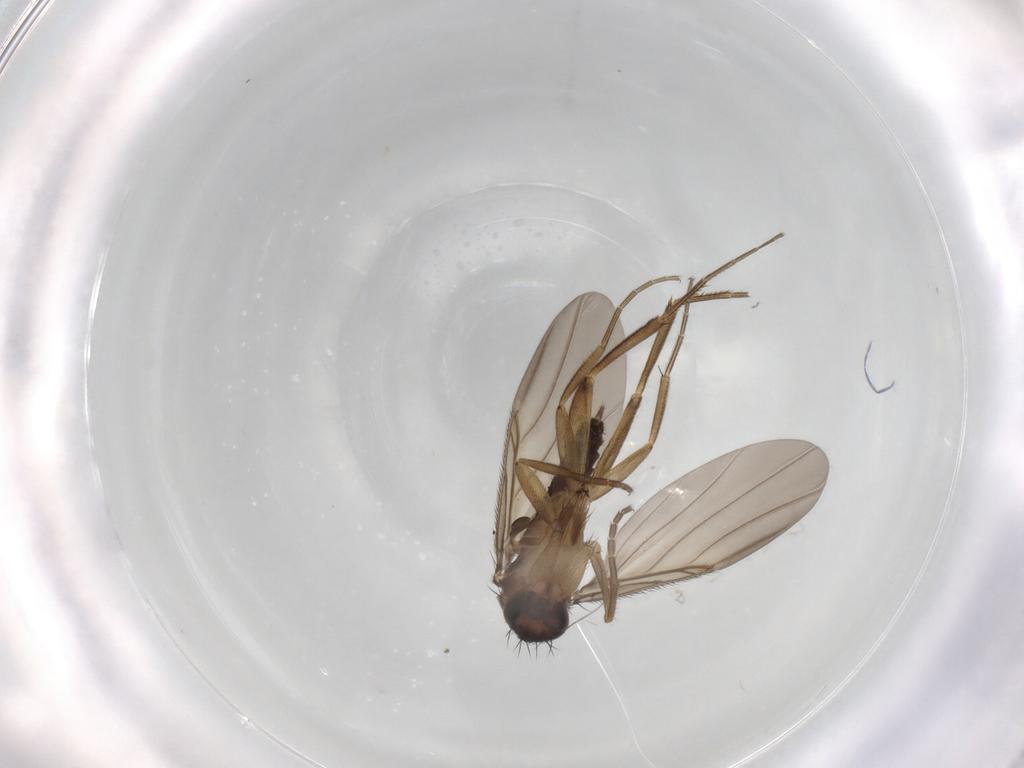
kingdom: Animalia
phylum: Arthropoda
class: Insecta
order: Diptera
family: Phoridae
